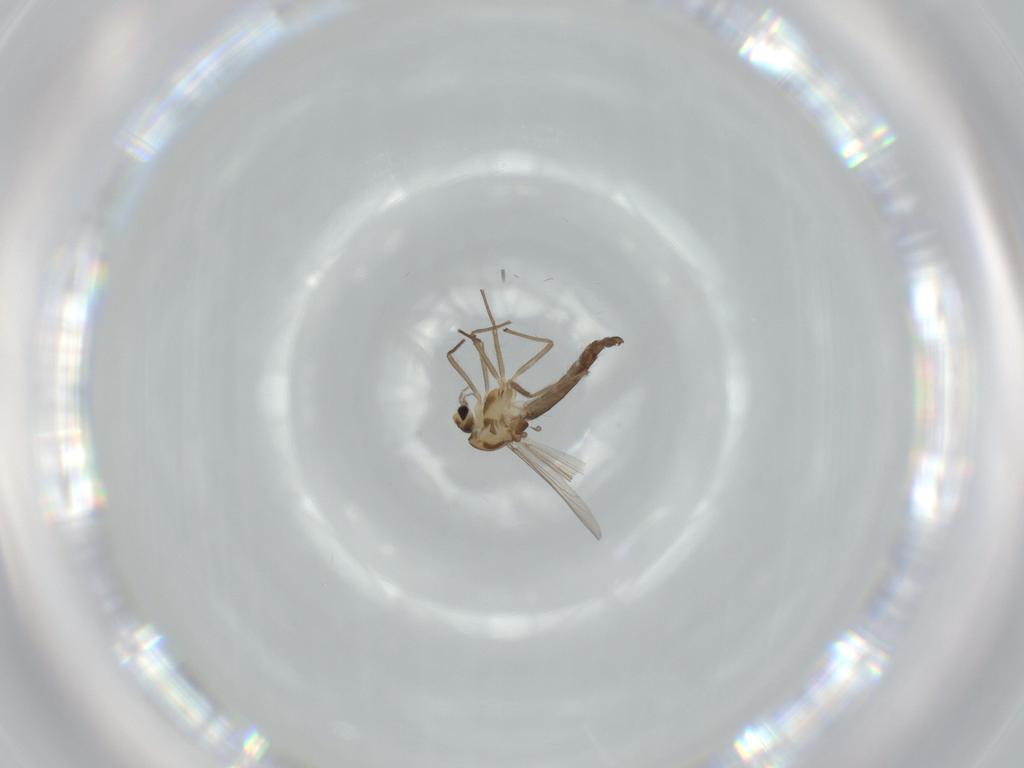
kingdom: Animalia
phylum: Arthropoda
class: Insecta
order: Diptera
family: Chironomidae
